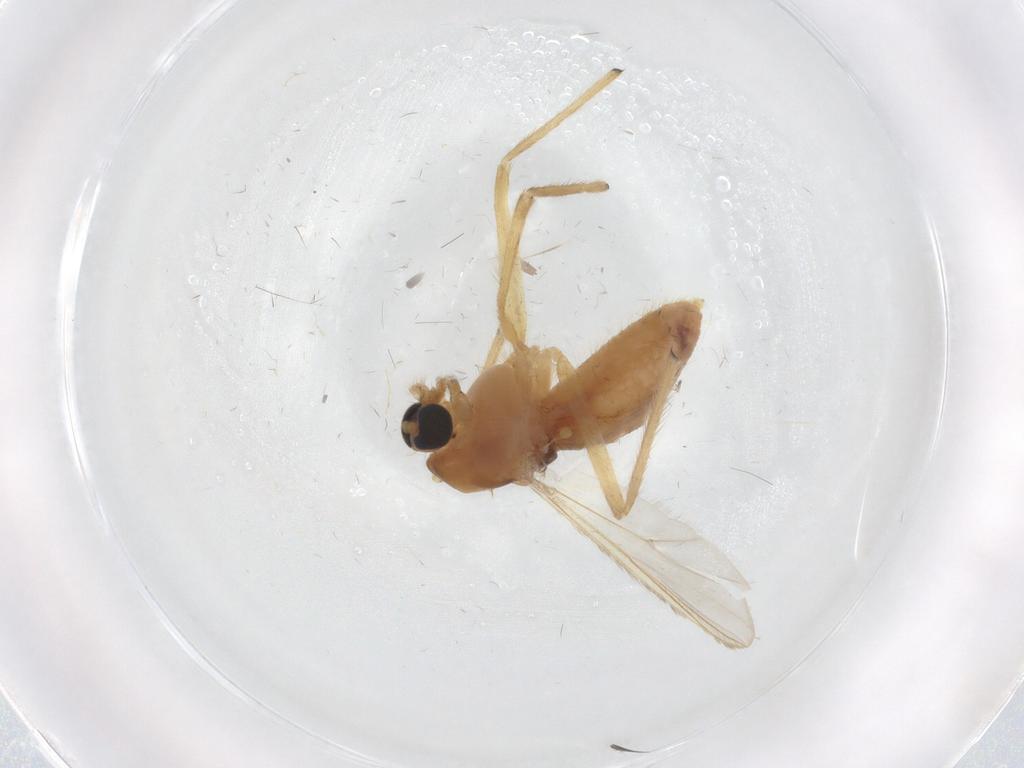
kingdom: Animalia
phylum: Arthropoda
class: Insecta
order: Diptera
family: Chironomidae
